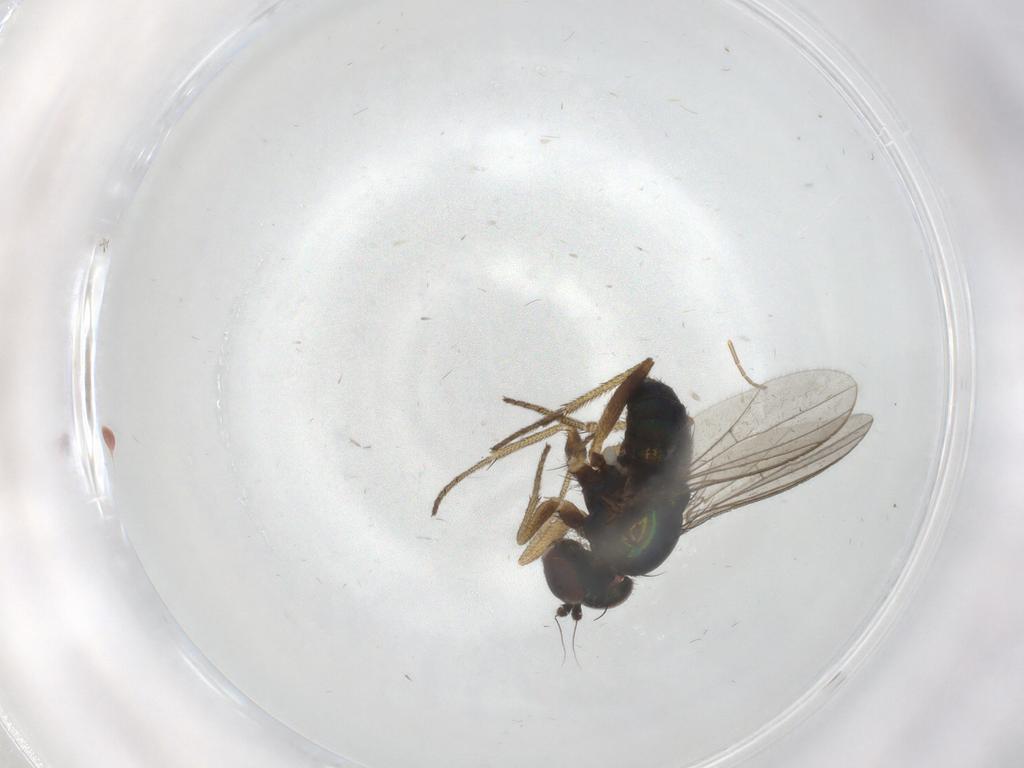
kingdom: Animalia
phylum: Arthropoda
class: Insecta
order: Diptera
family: Phoridae
